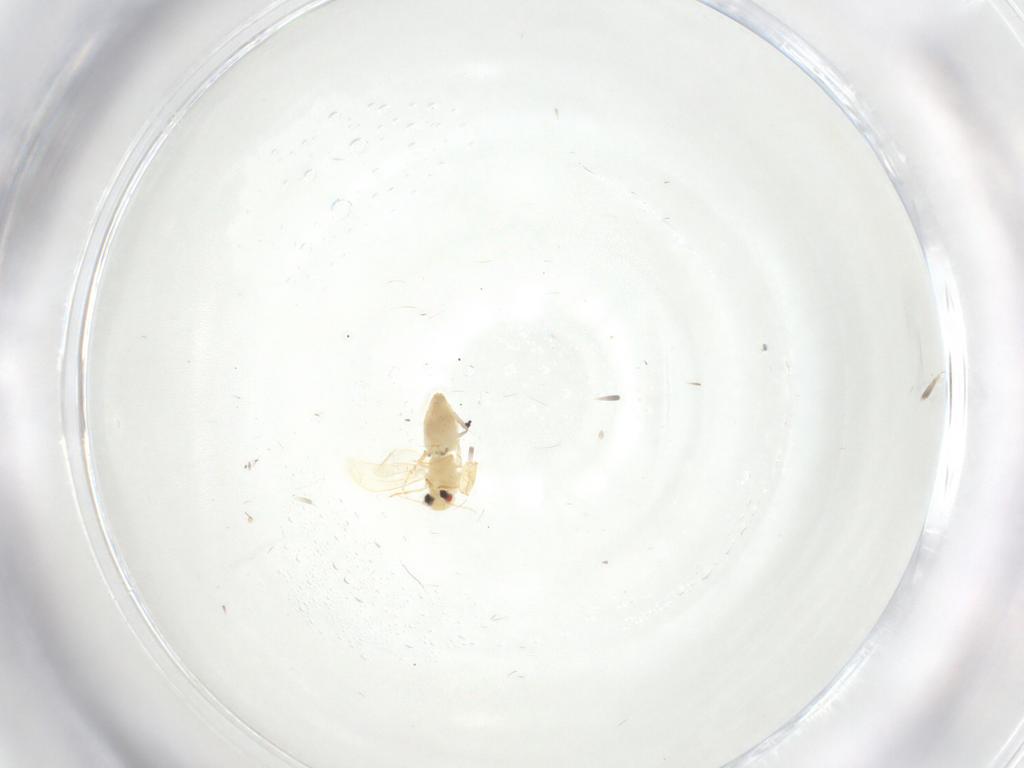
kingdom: Animalia
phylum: Arthropoda
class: Insecta
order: Hemiptera
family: Aleyrodidae
